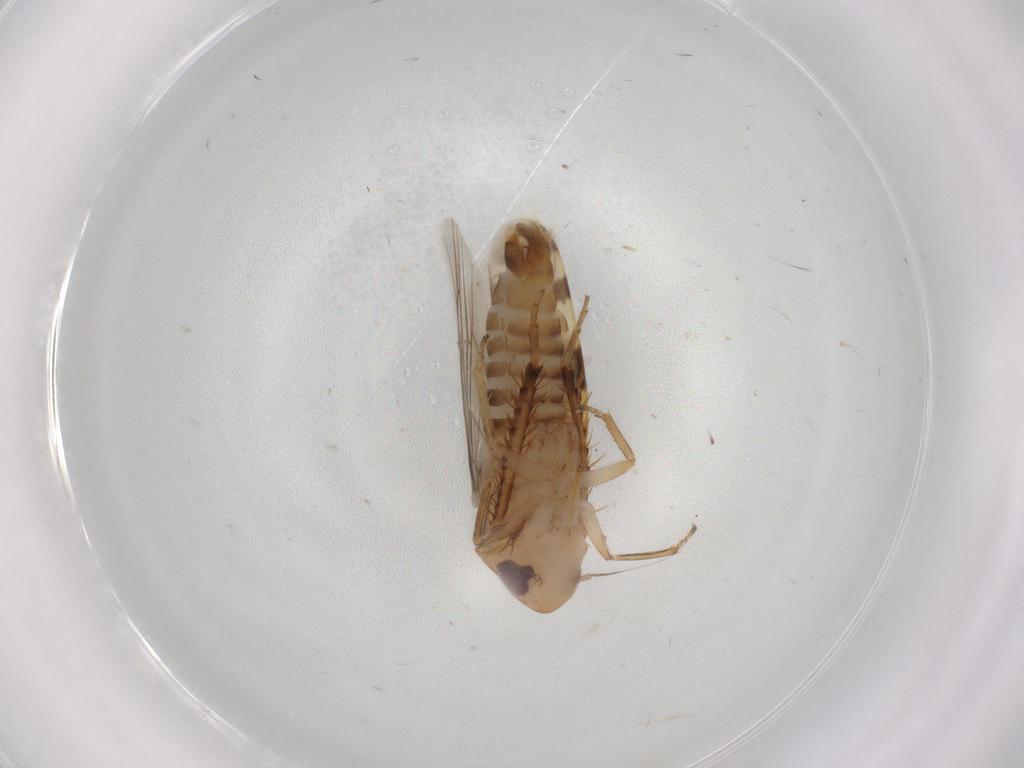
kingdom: Animalia
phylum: Arthropoda
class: Insecta
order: Hemiptera
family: Cicadellidae
